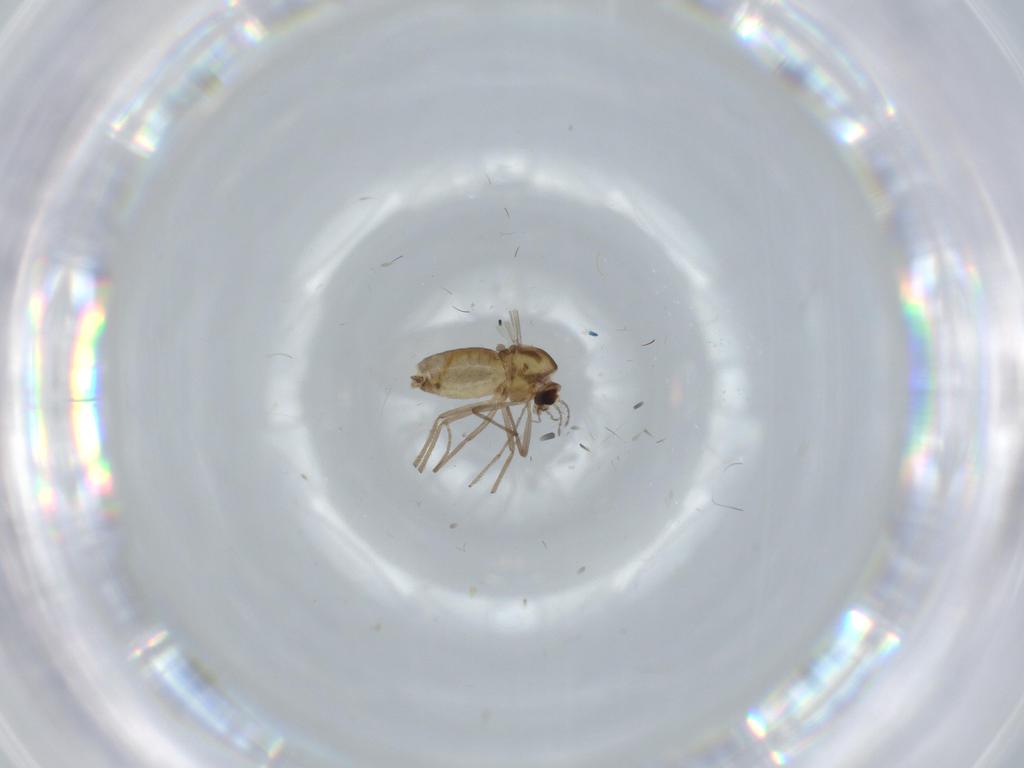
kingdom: Animalia
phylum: Arthropoda
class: Insecta
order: Diptera
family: Chironomidae
